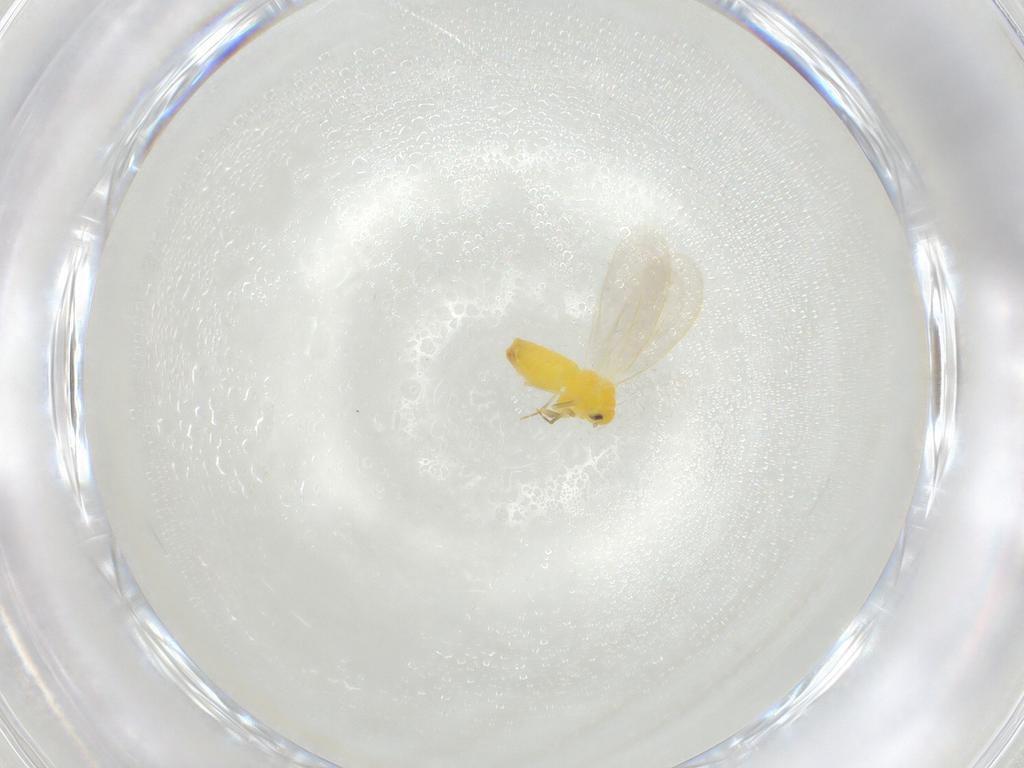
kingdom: Animalia
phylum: Arthropoda
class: Insecta
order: Hemiptera
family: Aleyrodidae
